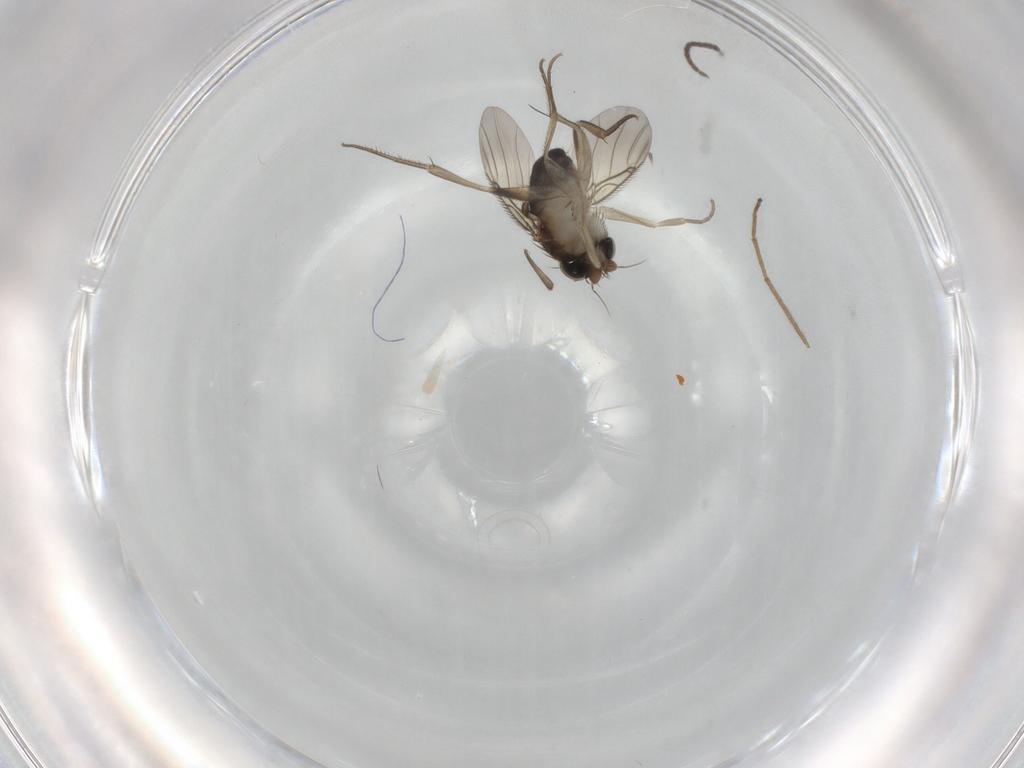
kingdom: Animalia
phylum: Arthropoda
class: Insecta
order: Diptera
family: Phoridae
